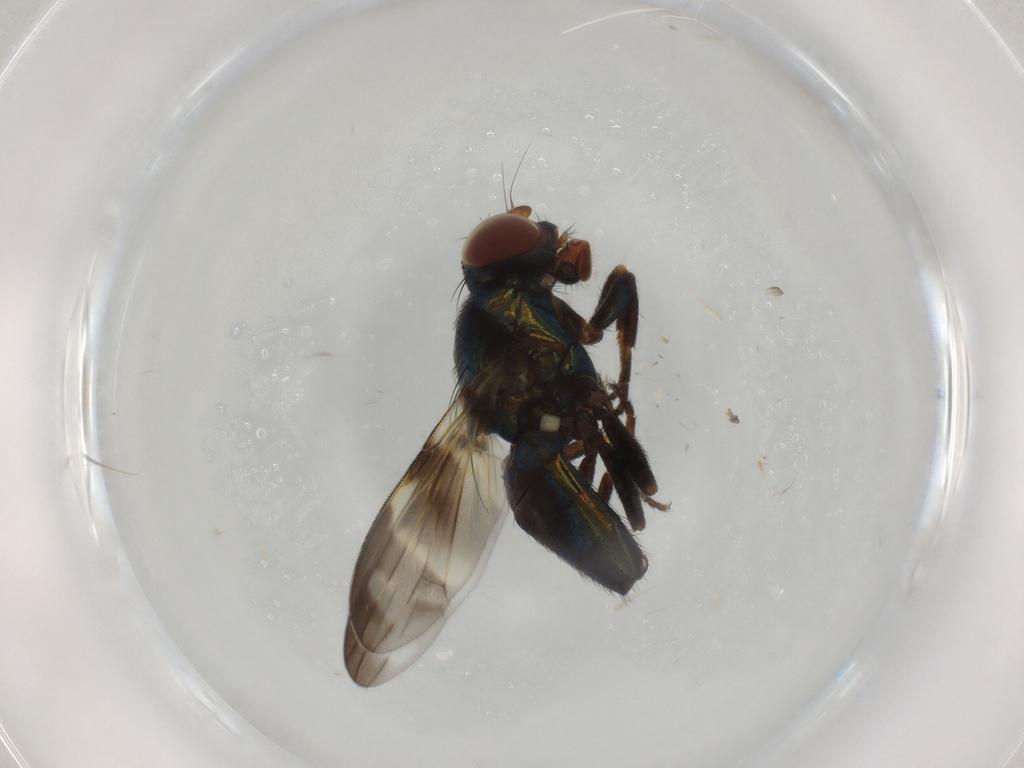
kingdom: Animalia
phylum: Arthropoda
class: Insecta
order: Diptera
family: Ulidiidae
